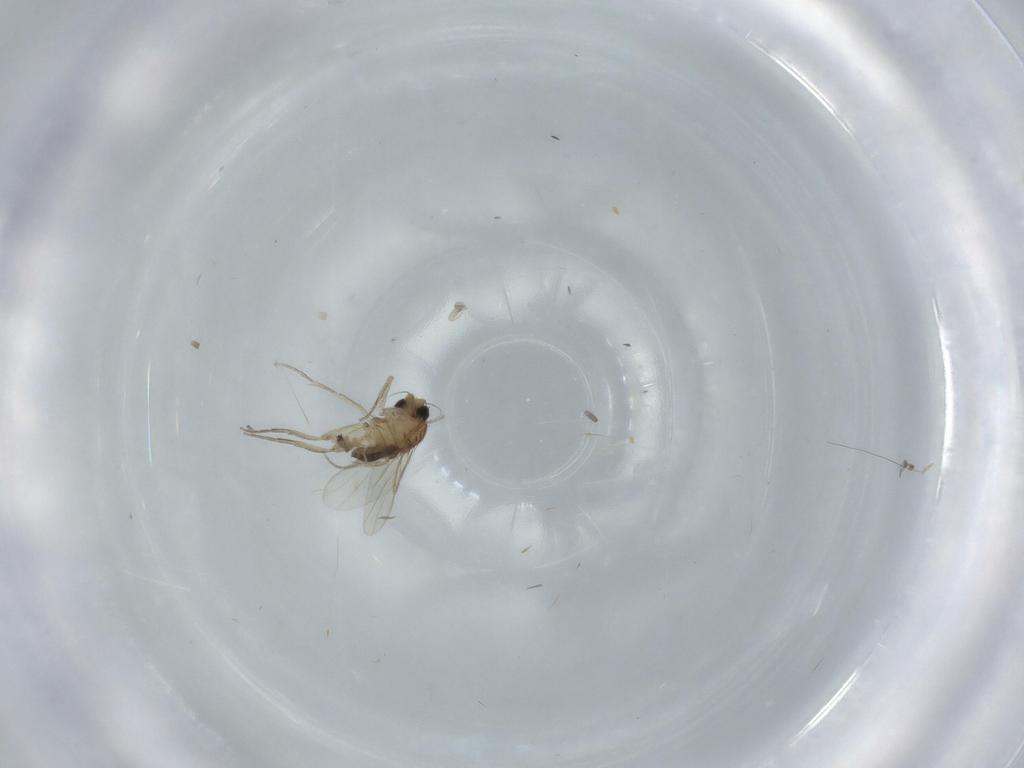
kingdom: Animalia
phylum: Arthropoda
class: Insecta
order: Diptera
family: Phoridae
